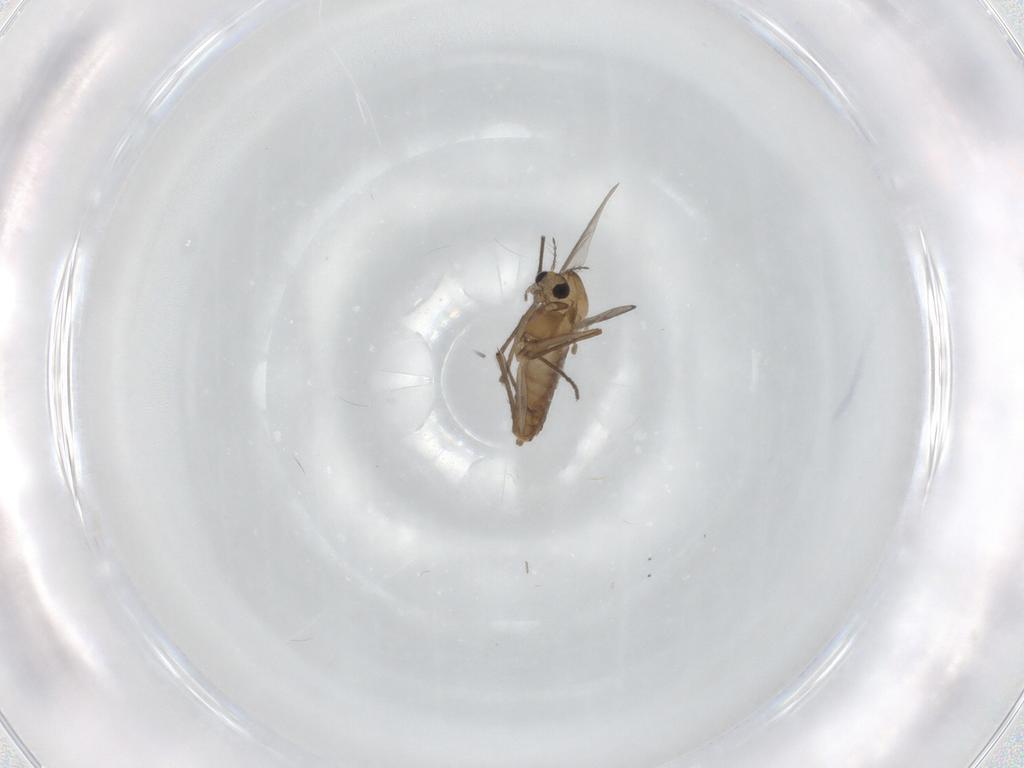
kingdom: Animalia
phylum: Arthropoda
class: Insecta
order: Diptera
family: Chironomidae
